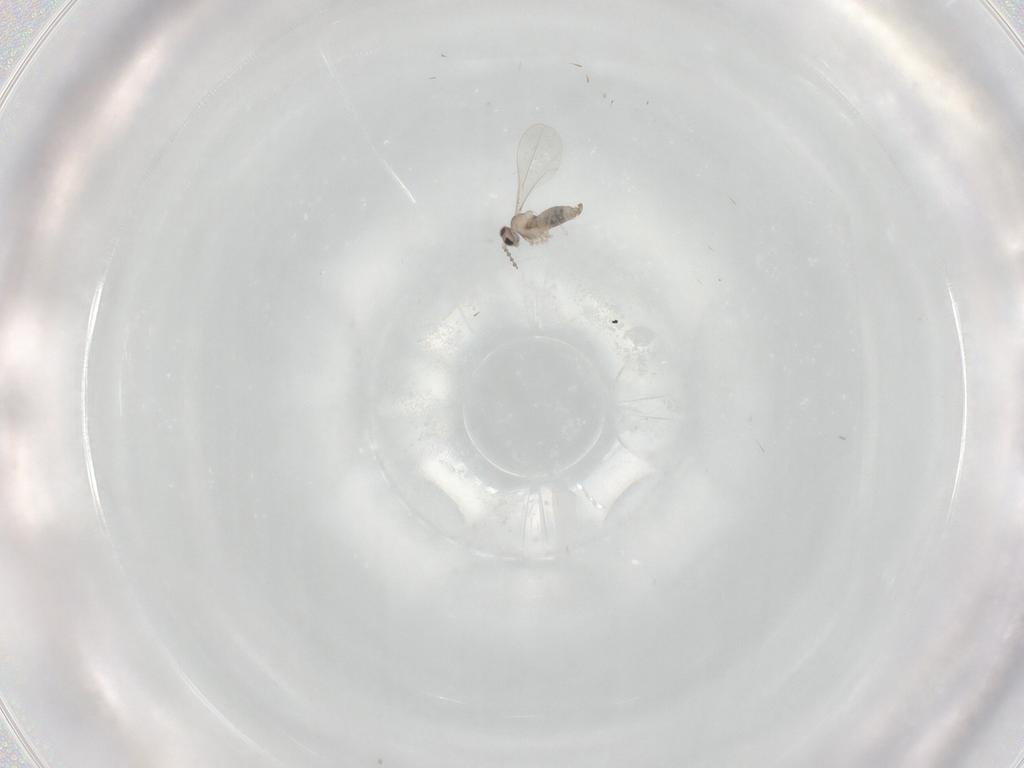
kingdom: Animalia
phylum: Arthropoda
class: Insecta
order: Diptera
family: Cecidomyiidae
